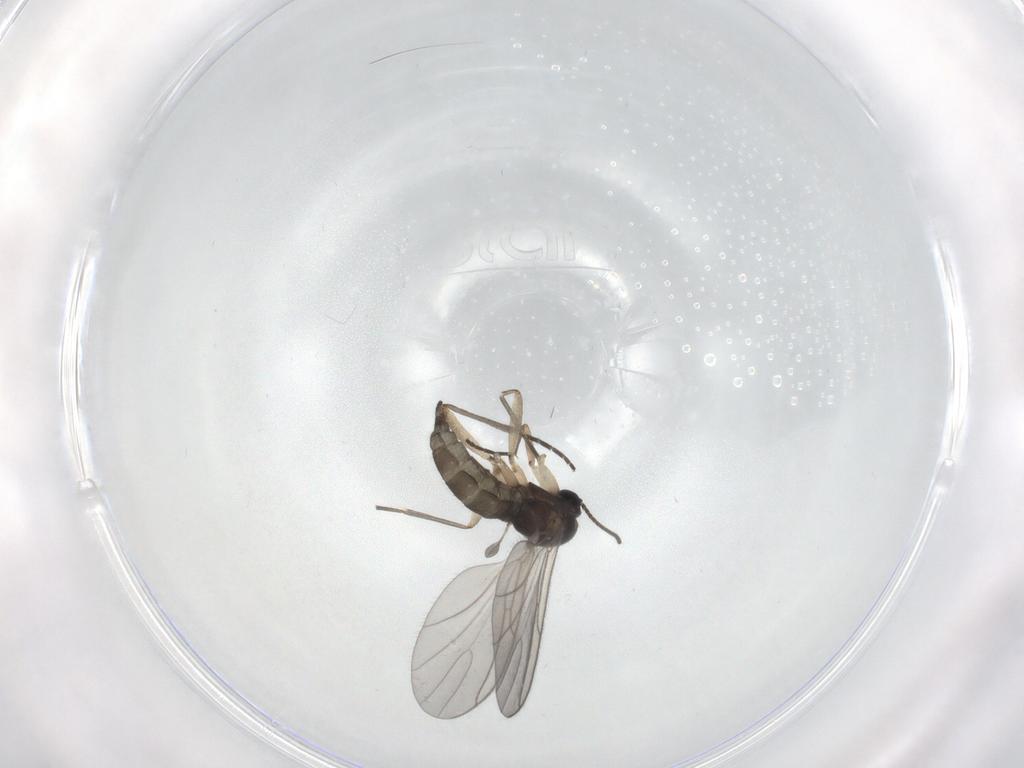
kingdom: Animalia
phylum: Arthropoda
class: Insecta
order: Diptera
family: Sciaridae
